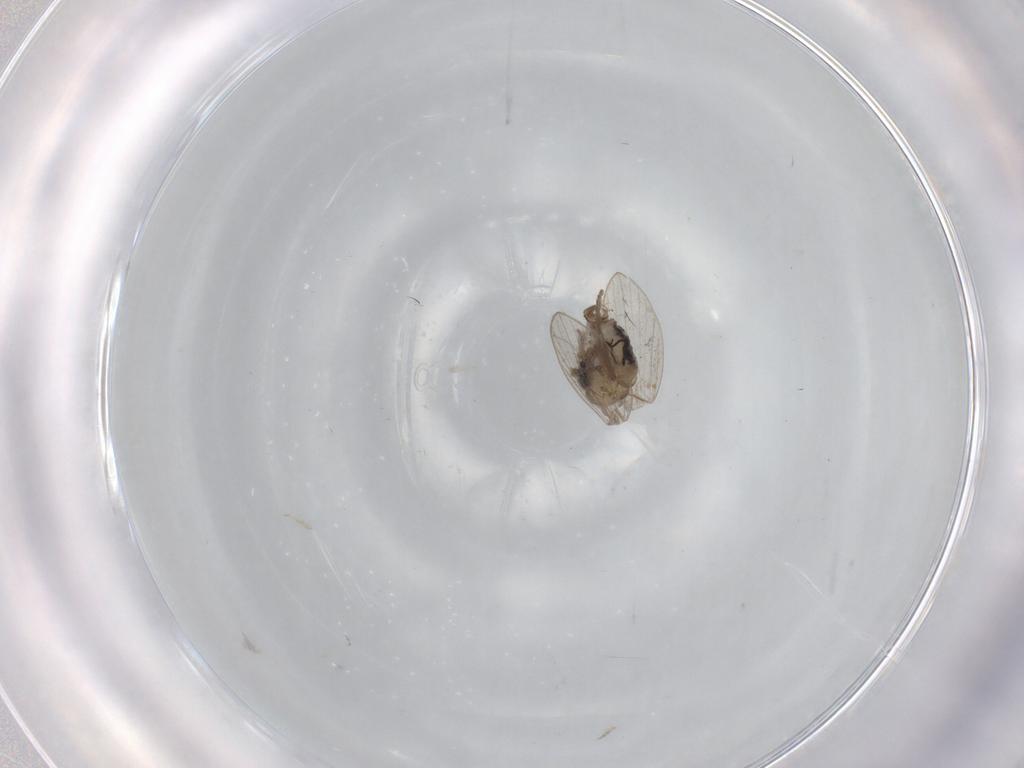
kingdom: Animalia
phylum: Arthropoda
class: Insecta
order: Diptera
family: Psychodidae
